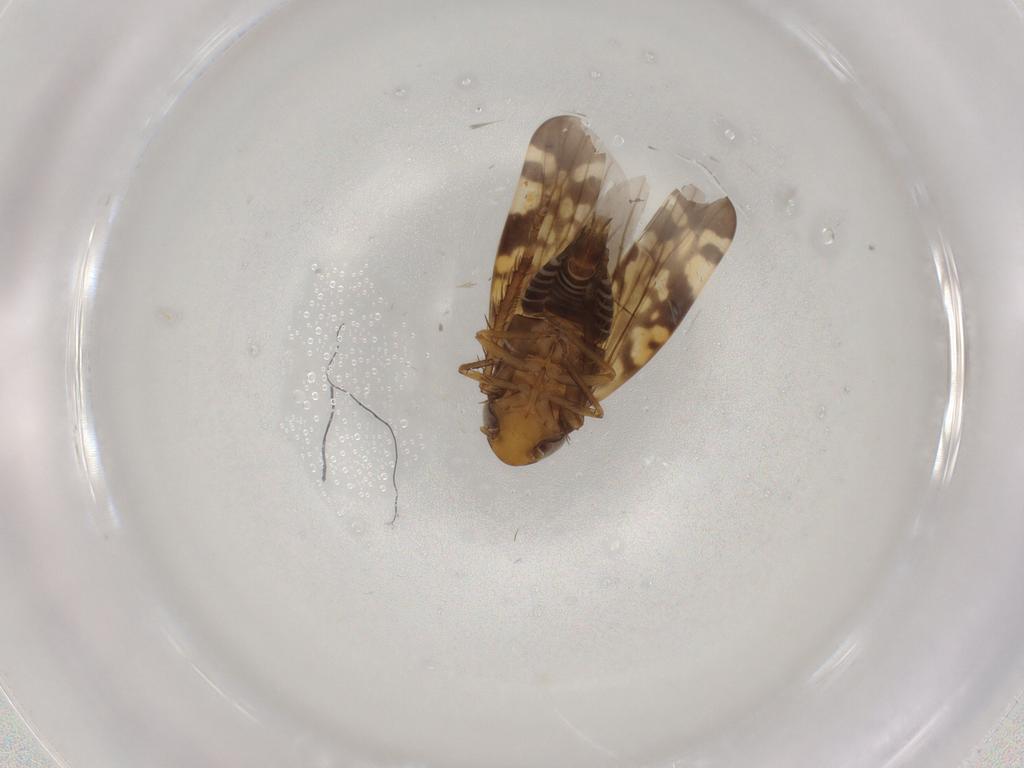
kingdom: Animalia
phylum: Arthropoda
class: Insecta
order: Hemiptera
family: Cicadellidae
